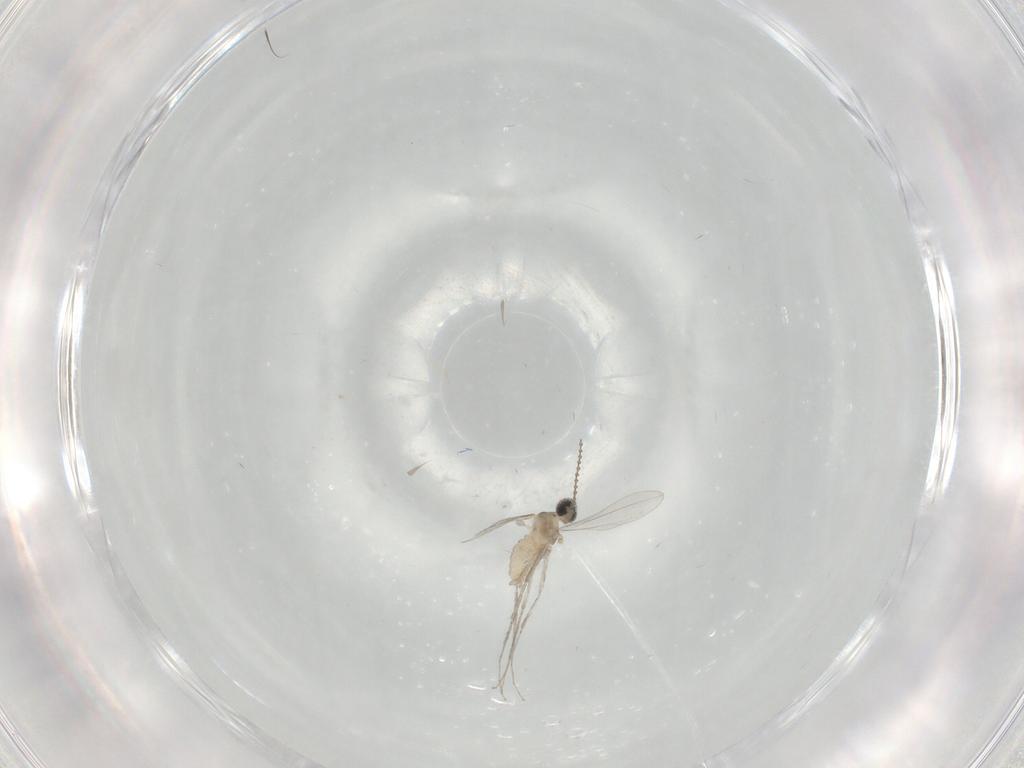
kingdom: Animalia
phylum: Arthropoda
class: Insecta
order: Diptera
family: Cecidomyiidae
